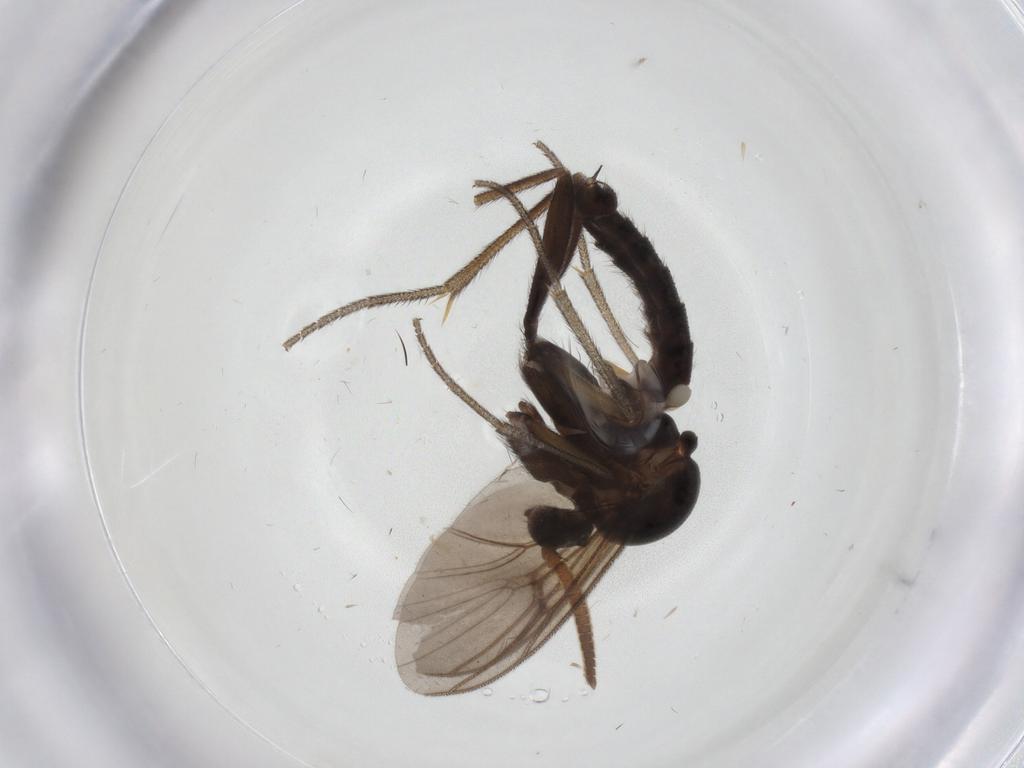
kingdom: Animalia
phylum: Arthropoda
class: Insecta
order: Diptera
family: Mycetophilidae
